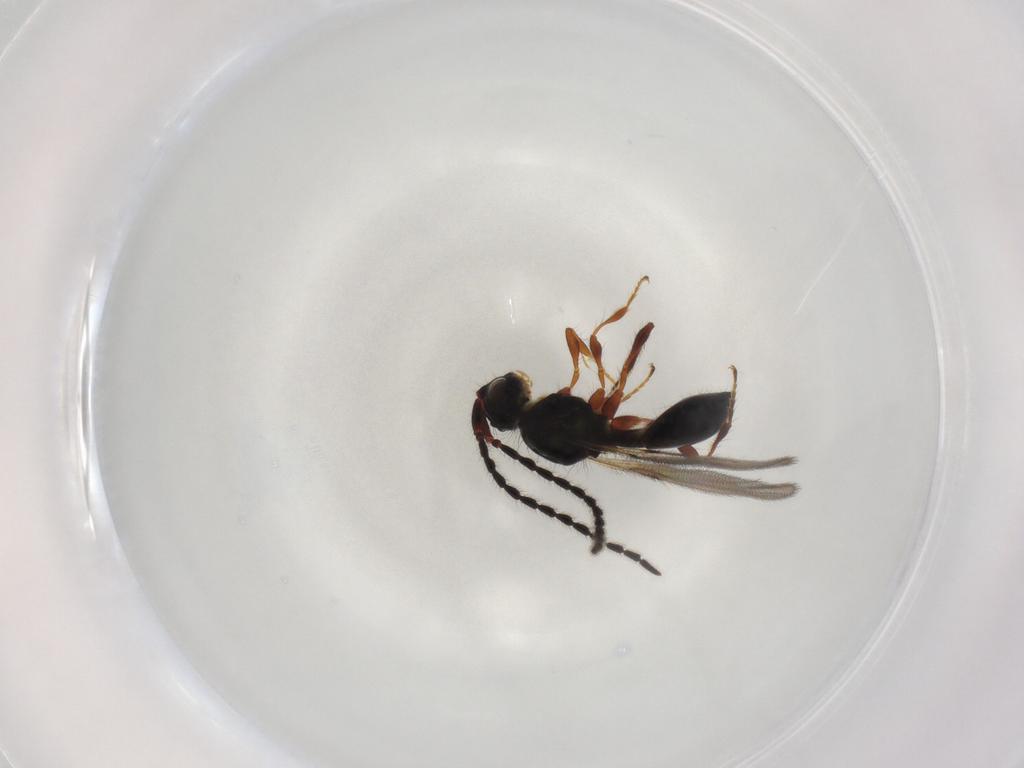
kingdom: Animalia
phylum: Arthropoda
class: Insecta
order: Hymenoptera
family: Diapriidae
